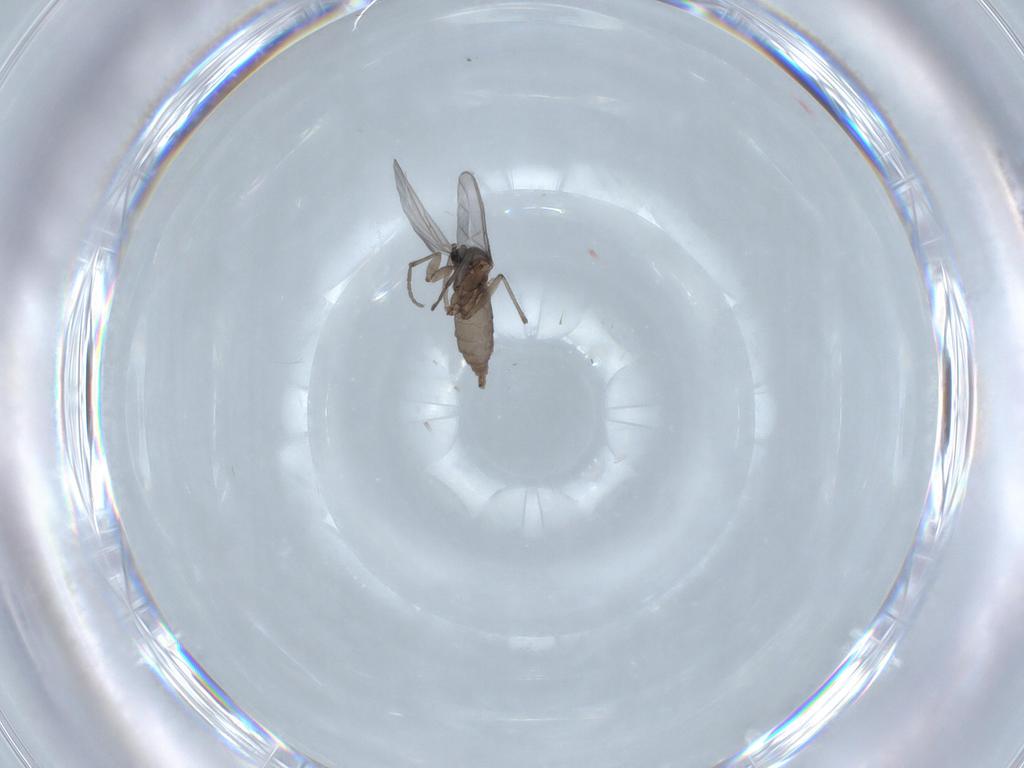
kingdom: Animalia
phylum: Arthropoda
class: Insecta
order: Diptera
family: Sciaridae
